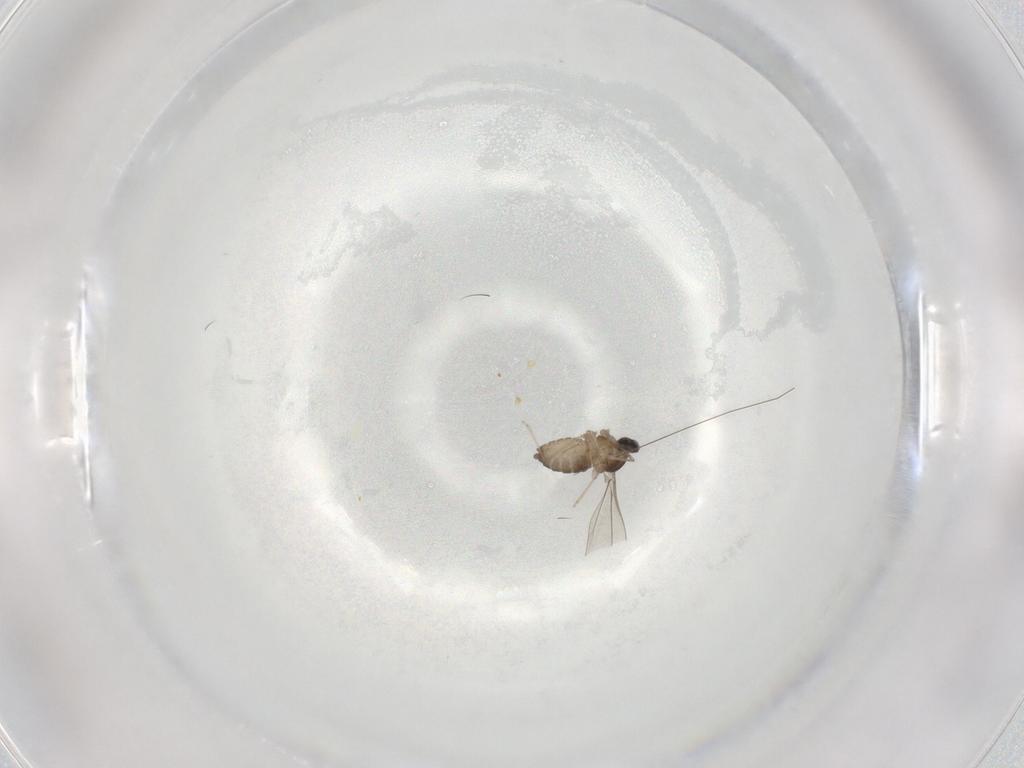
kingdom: Animalia
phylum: Arthropoda
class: Insecta
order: Diptera
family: Cecidomyiidae
